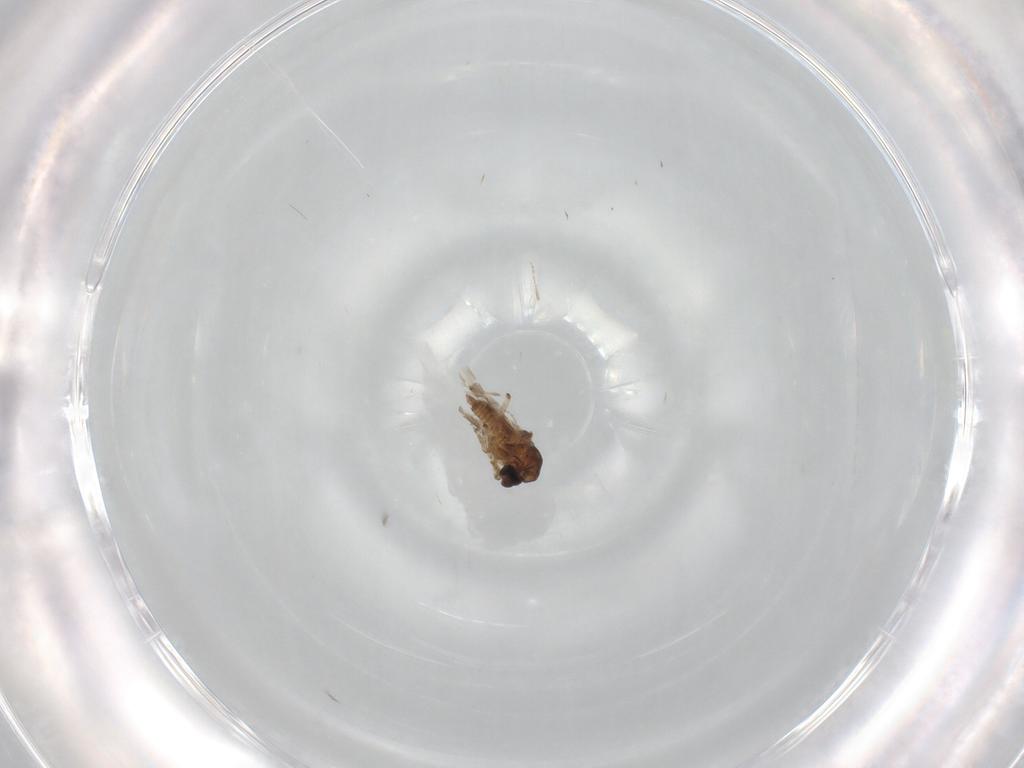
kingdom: Animalia
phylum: Arthropoda
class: Insecta
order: Diptera
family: Ceratopogonidae
